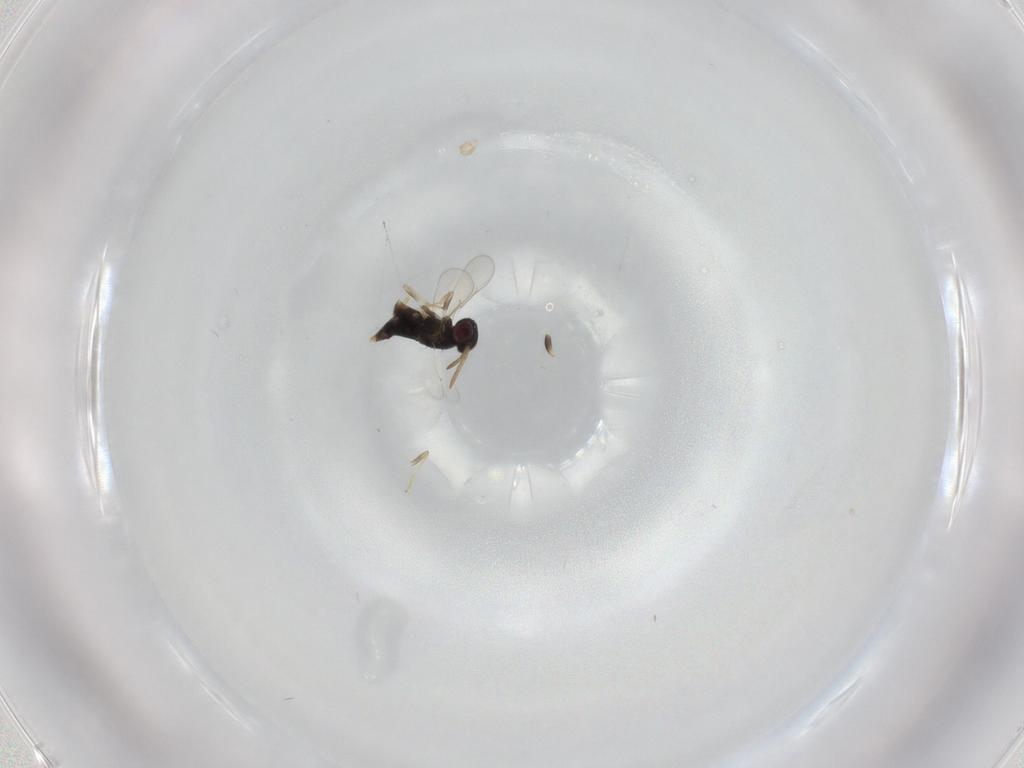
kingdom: Animalia
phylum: Arthropoda
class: Insecta
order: Hymenoptera
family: Aphelinidae
